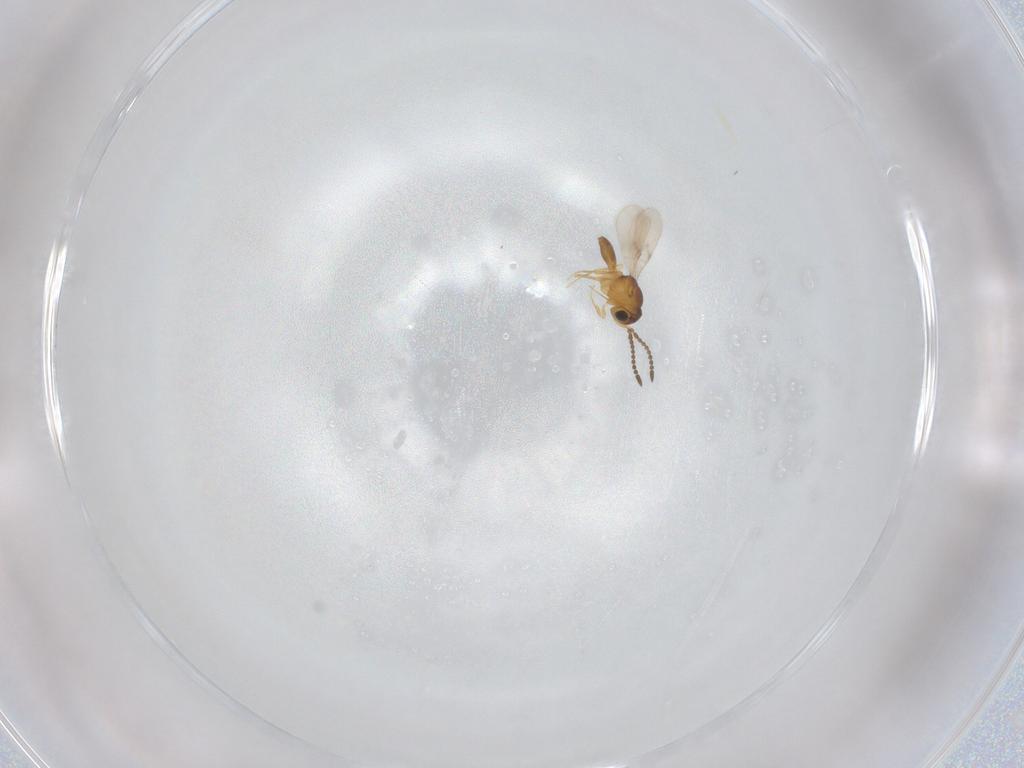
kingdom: Animalia
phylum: Arthropoda
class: Insecta
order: Hymenoptera
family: Scelionidae
